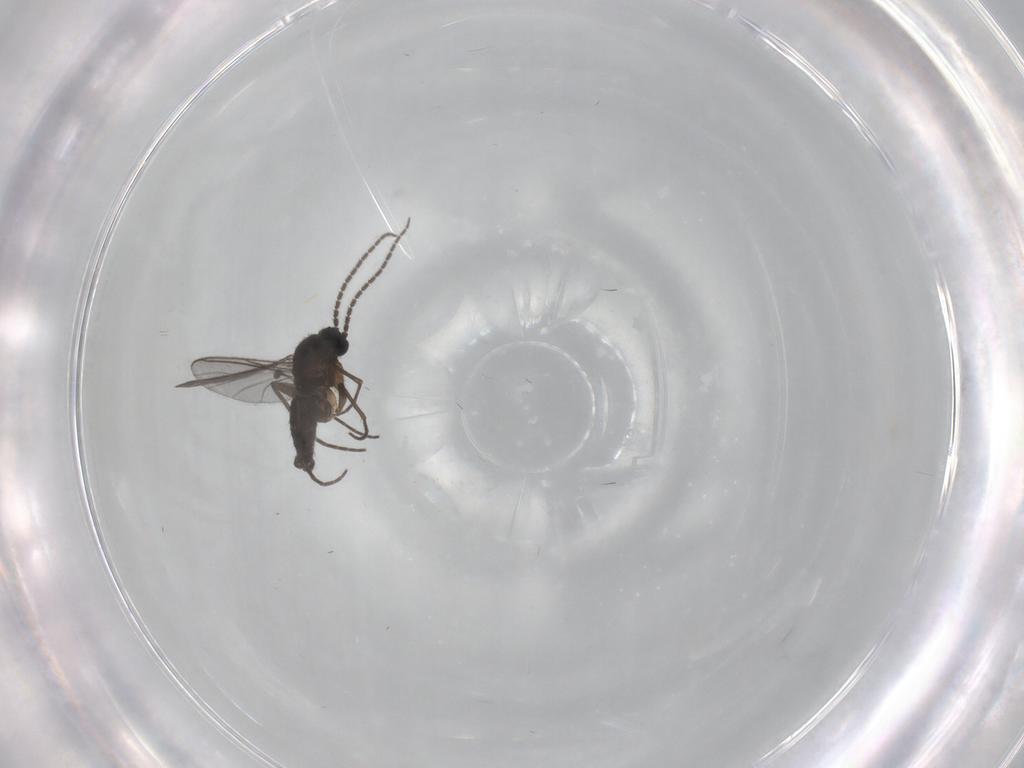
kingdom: Animalia
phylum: Arthropoda
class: Insecta
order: Diptera
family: Sciaridae
